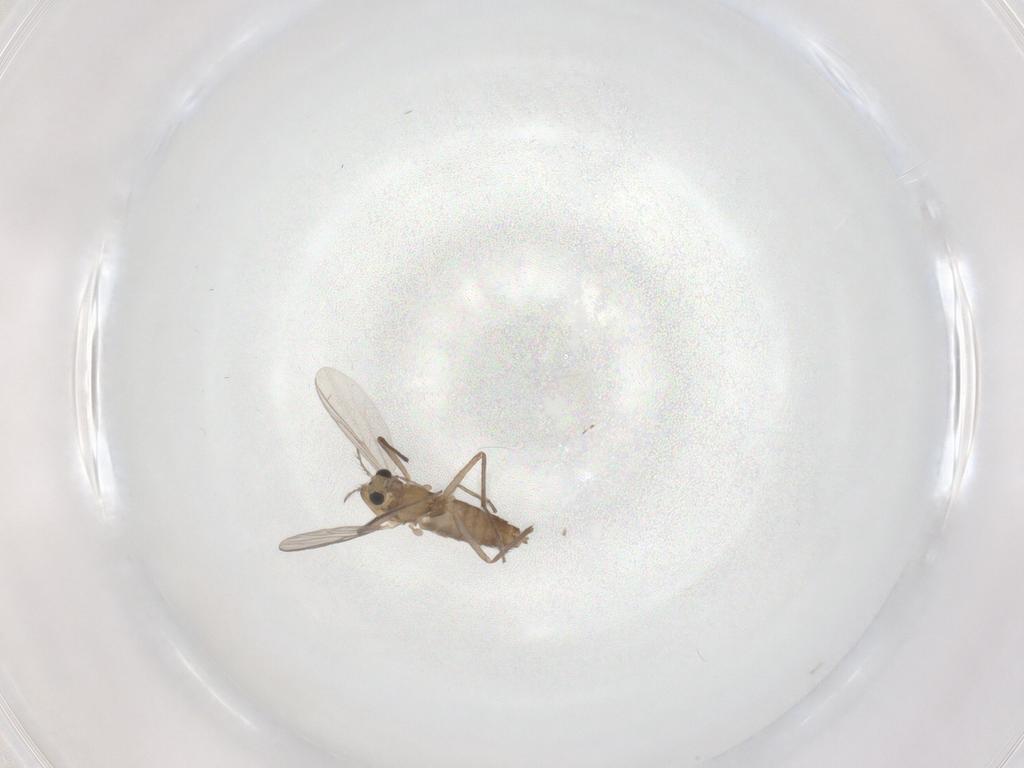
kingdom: Animalia
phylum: Arthropoda
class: Insecta
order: Diptera
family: Chironomidae
